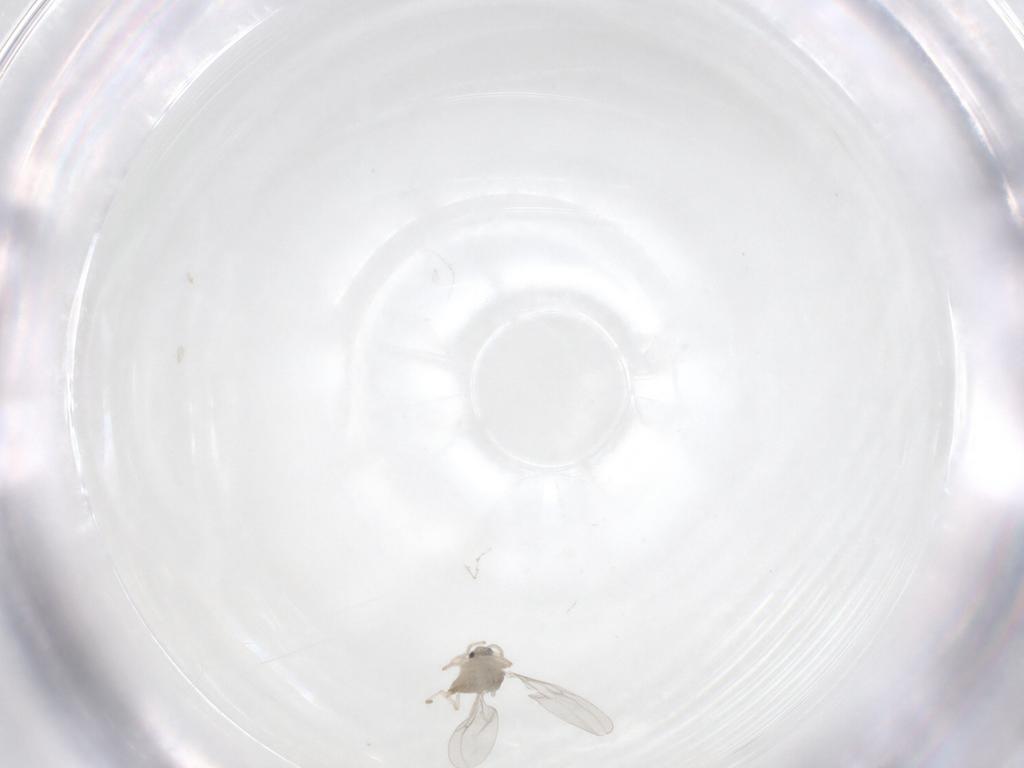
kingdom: Animalia
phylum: Arthropoda
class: Insecta
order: Diptera
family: Cecidomyiidae
